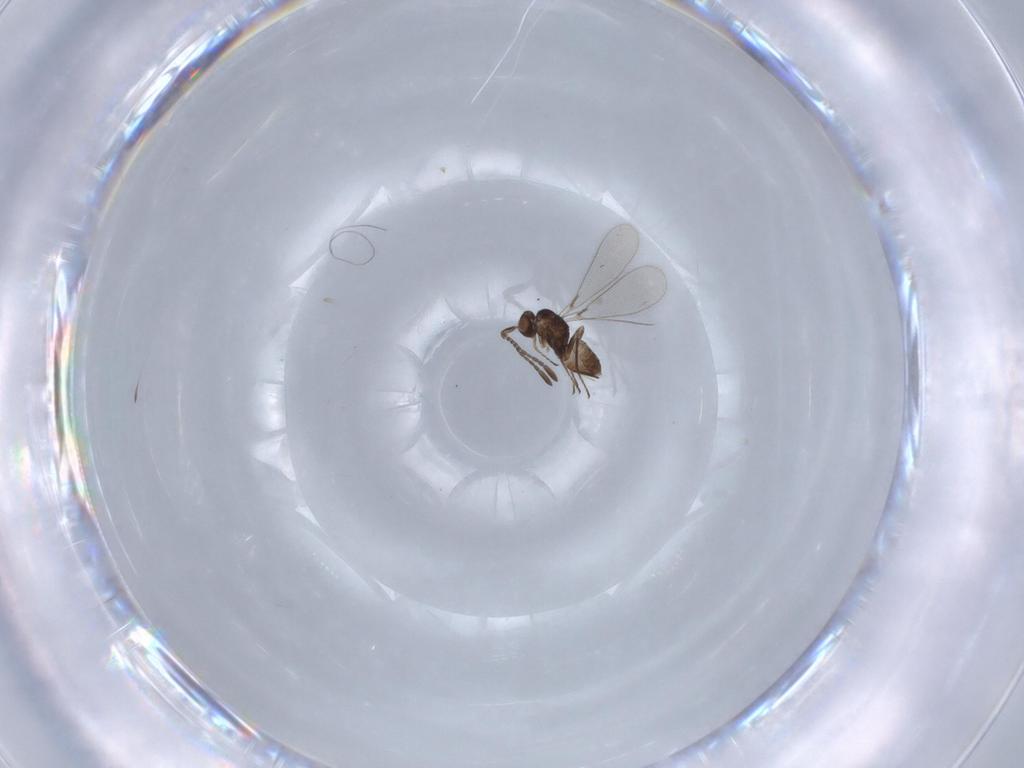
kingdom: Animalia
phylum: Arthropoda
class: Insecta
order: Hymenoptera
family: Mymaridae
